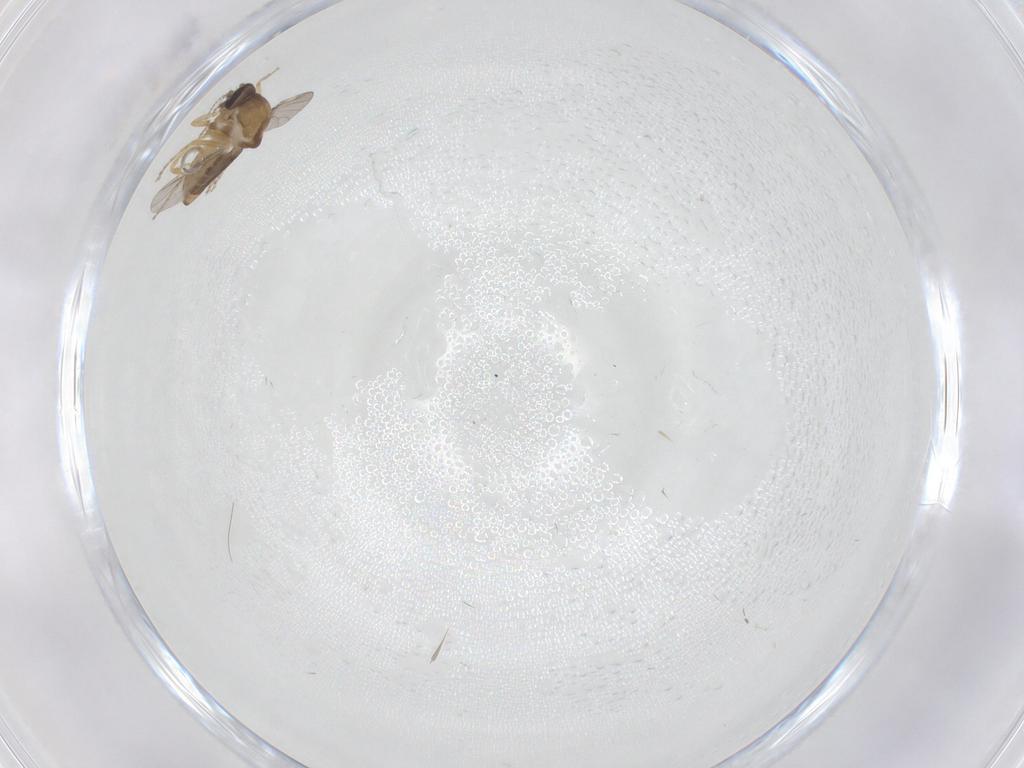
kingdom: Animalia
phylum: Arthropoda
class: Insecta
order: Diptera
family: Ceratopogonidae
